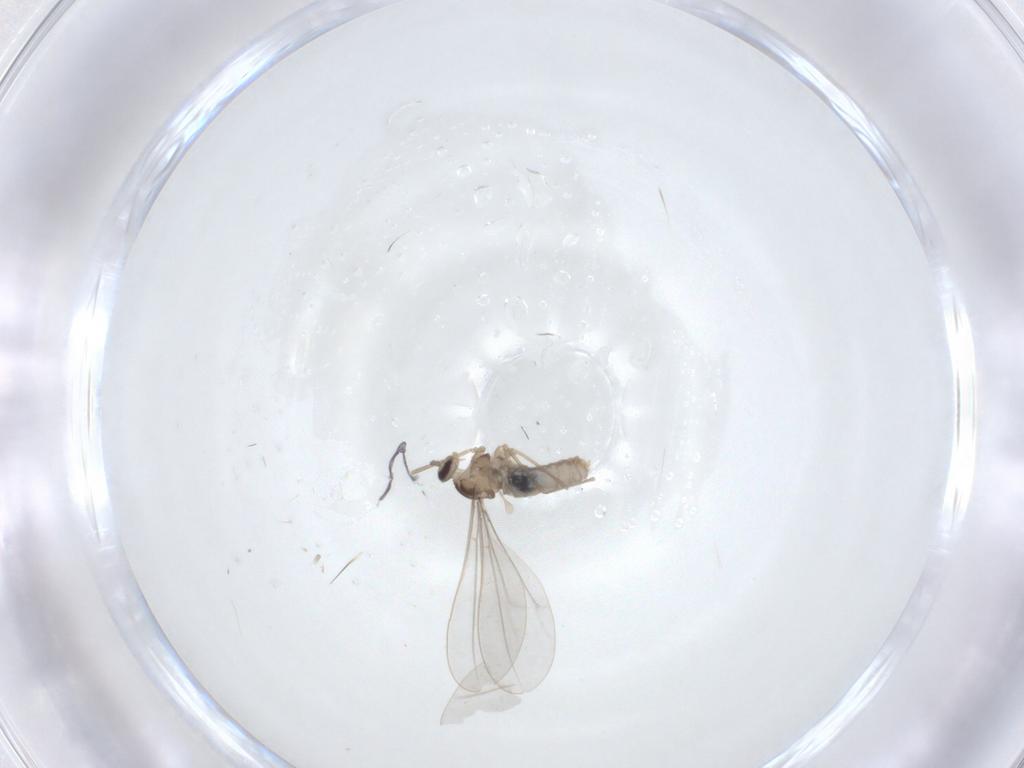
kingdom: Animalia
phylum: Arthropoda
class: Insecta
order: Diptera
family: Cecidomyiidae
